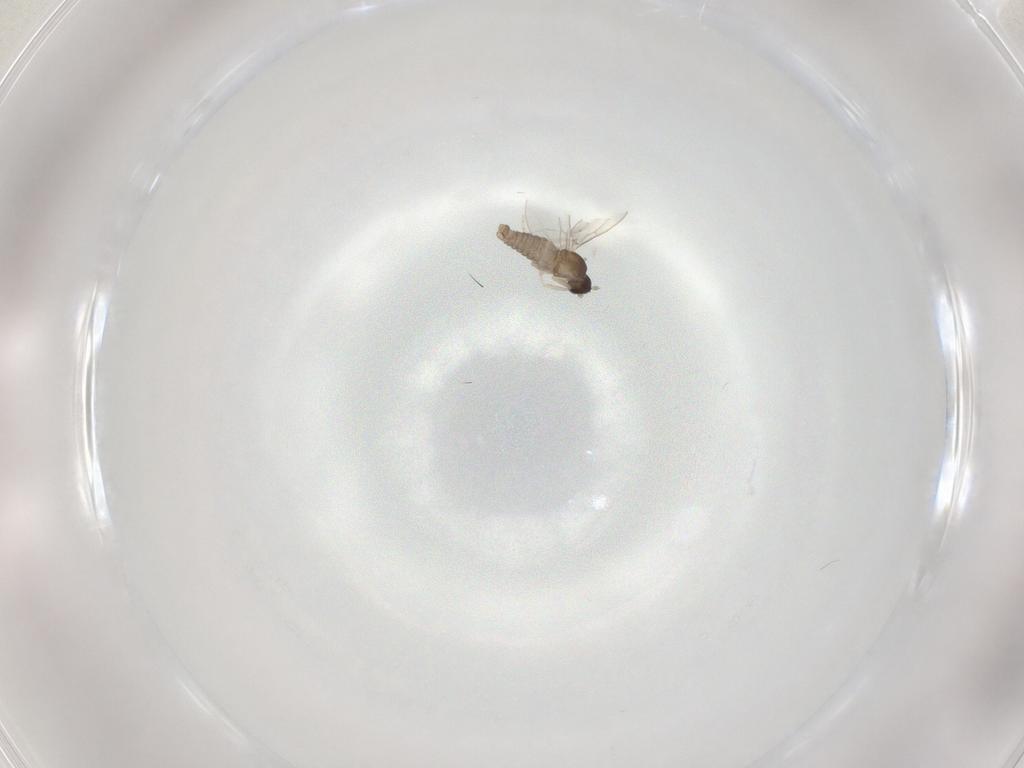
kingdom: Animalia
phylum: Arthropoda
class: Insecta
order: Diptera
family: Cecidomyiidae
